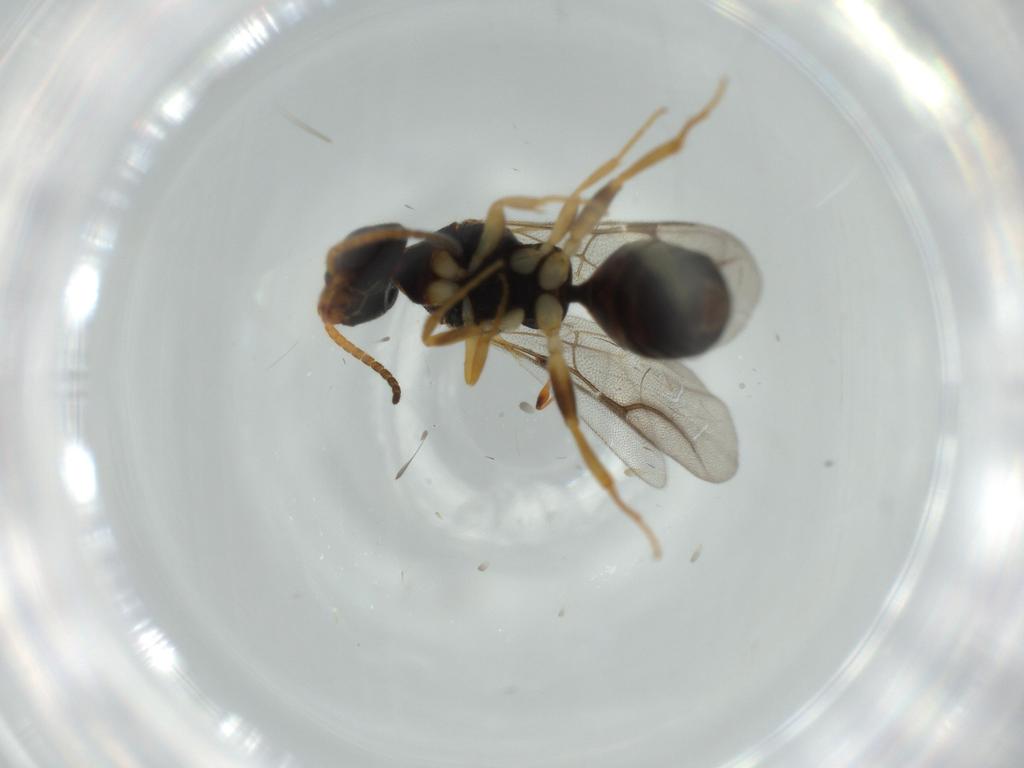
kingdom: Animalia
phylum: Arthropoda
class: Insecta
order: Hymenoptera
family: Bethylidae
